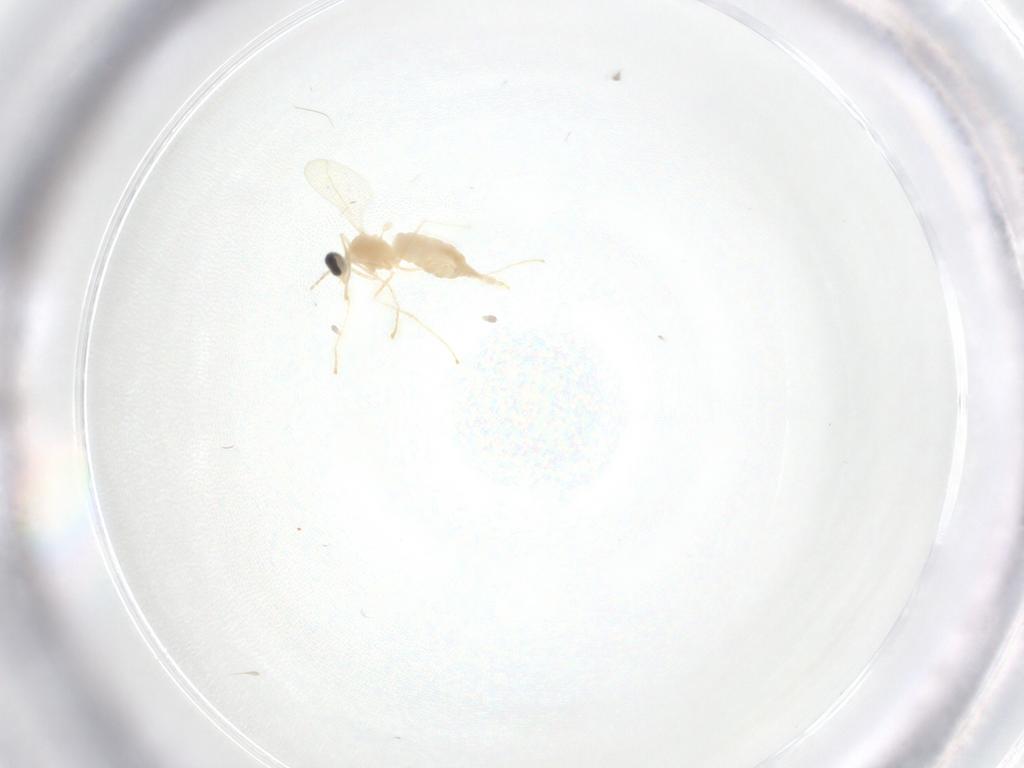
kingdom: Animalia
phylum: Arthropoda
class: Insecta
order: Diptera
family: Cecidomyiidae
